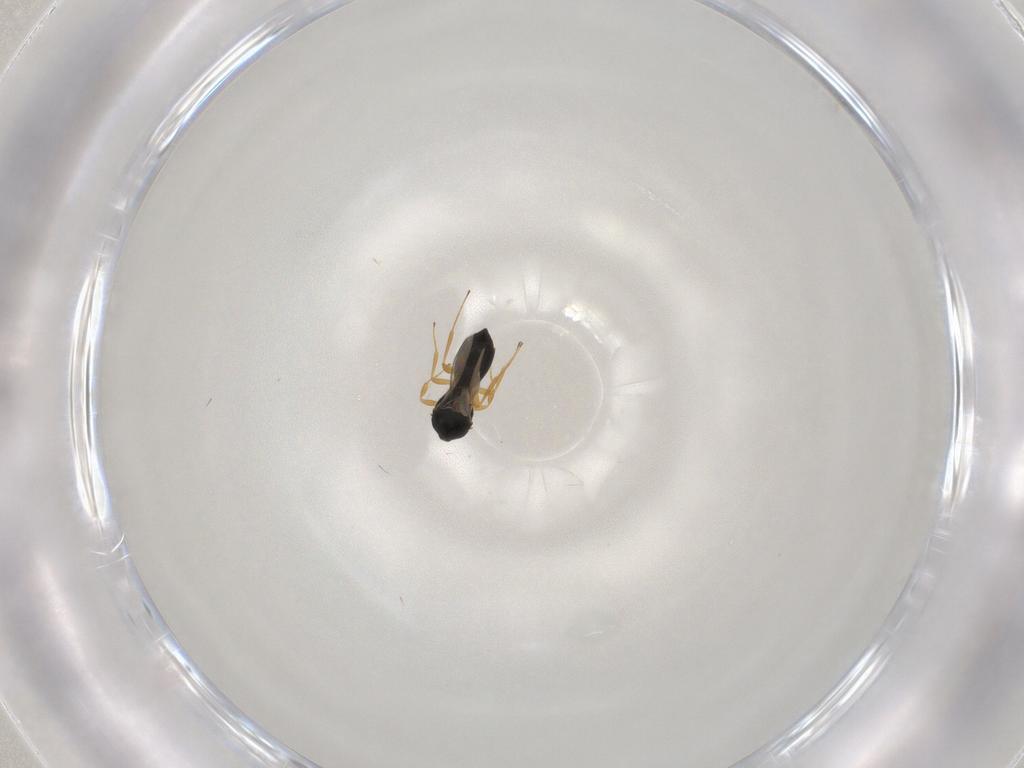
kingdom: Animalia
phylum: Arthropoda
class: Insecta
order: Hymenoptera
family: Scelionidae
